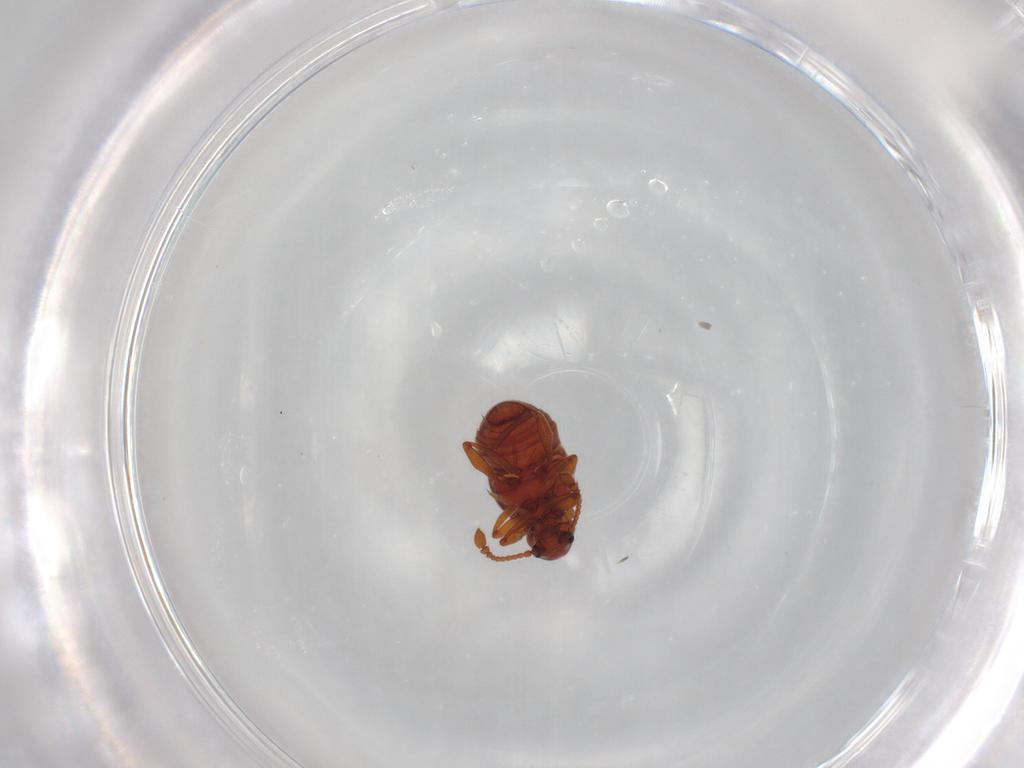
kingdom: Animalia
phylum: Arthropoda
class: Insecta
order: Coleoptera
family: Staphylinidae
